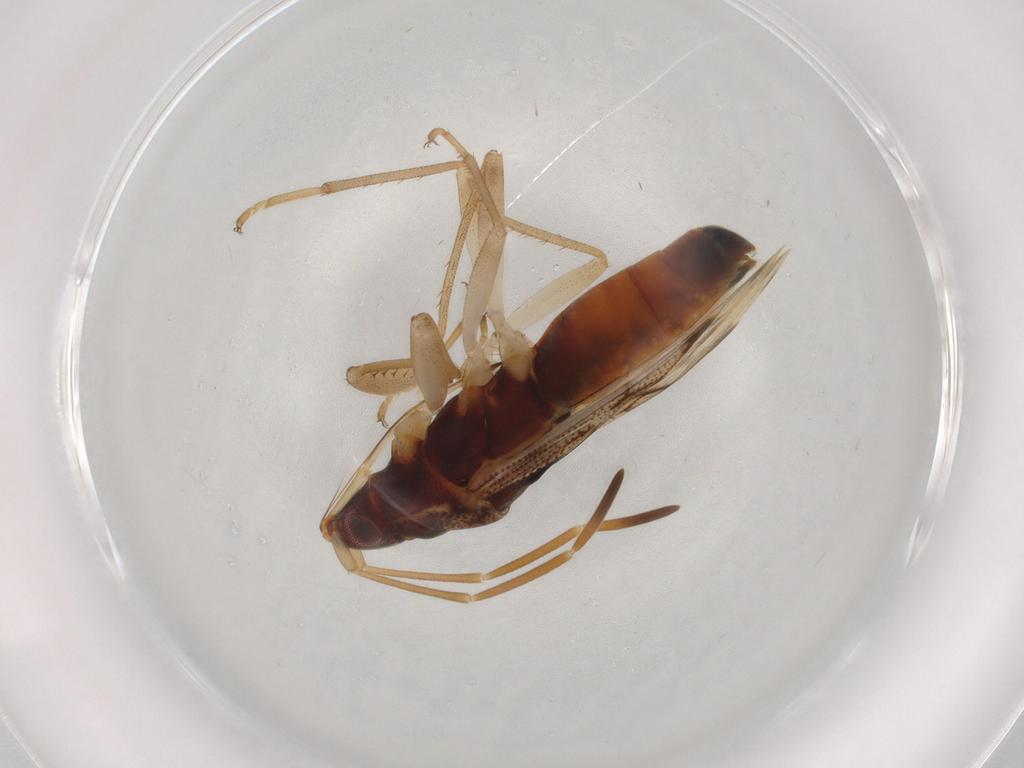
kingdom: Animalia
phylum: Arthropoda
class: Insecta
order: Hemiptera
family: Rhyparochromidae
